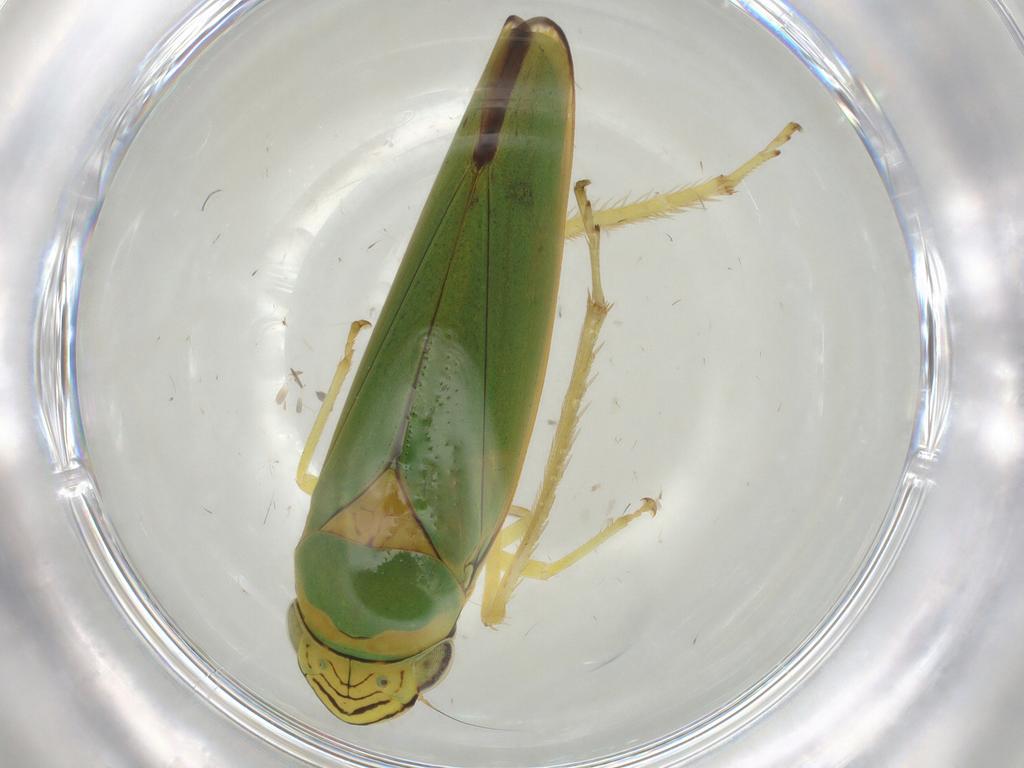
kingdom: Animalia
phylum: Arthropoda
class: Insecta
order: Hemiptera
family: Cicadellidae
